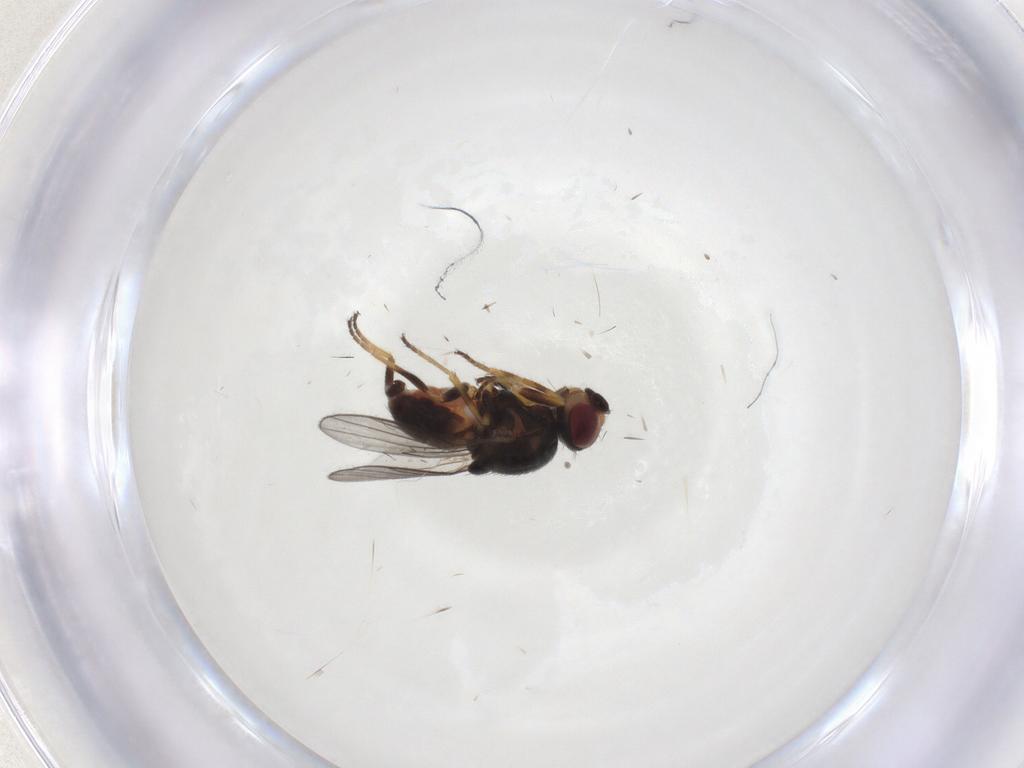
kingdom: Animalia
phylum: Arthropoda
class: Insecta
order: Diptera
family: Chloropidae
